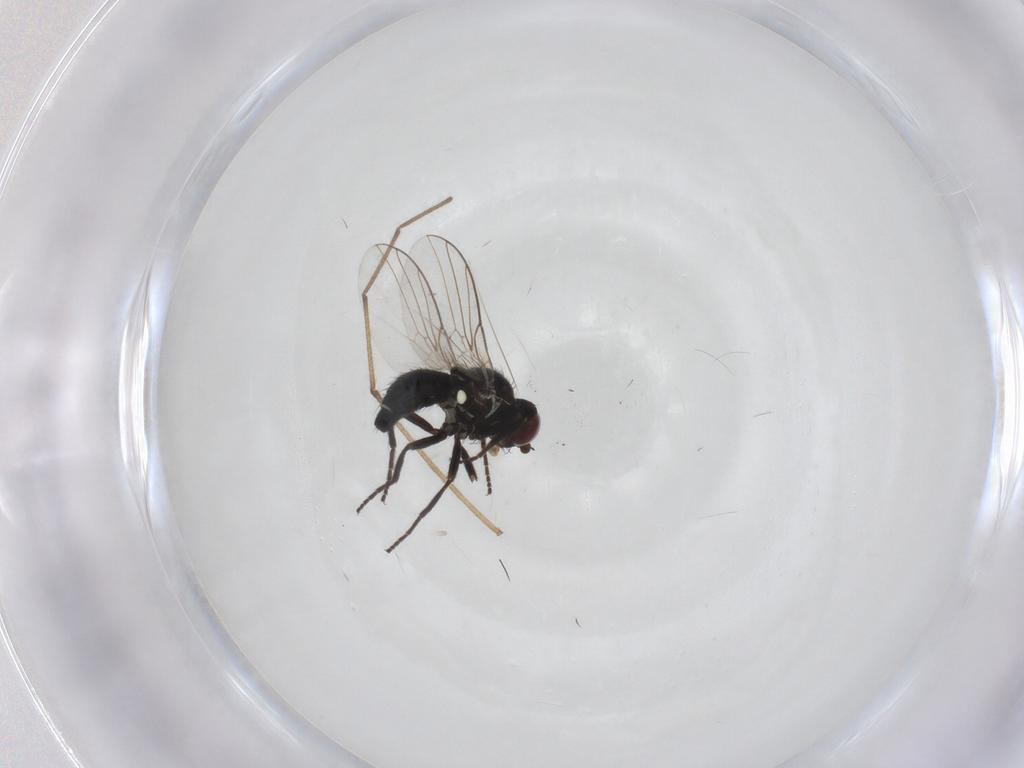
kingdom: Animalia
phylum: Arthropoda
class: Insecta
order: Diptera
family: Agromyzidae
